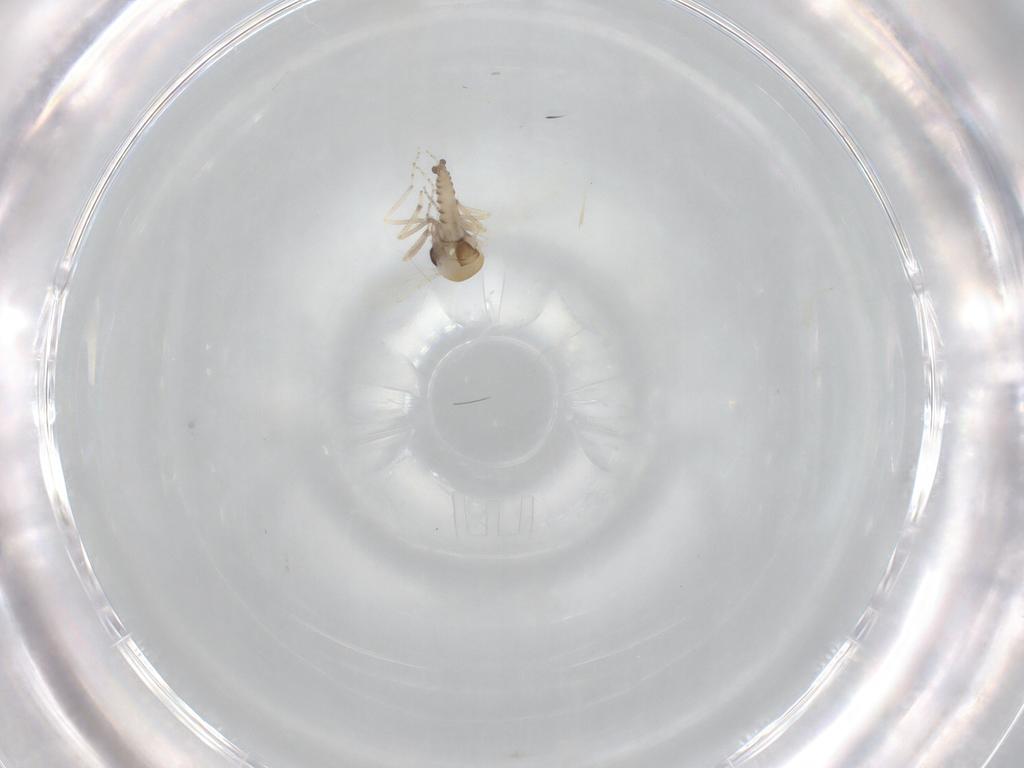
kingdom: Animalia
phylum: Arthropoda
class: Insecta
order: Diptera
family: Cecidomyiidae
